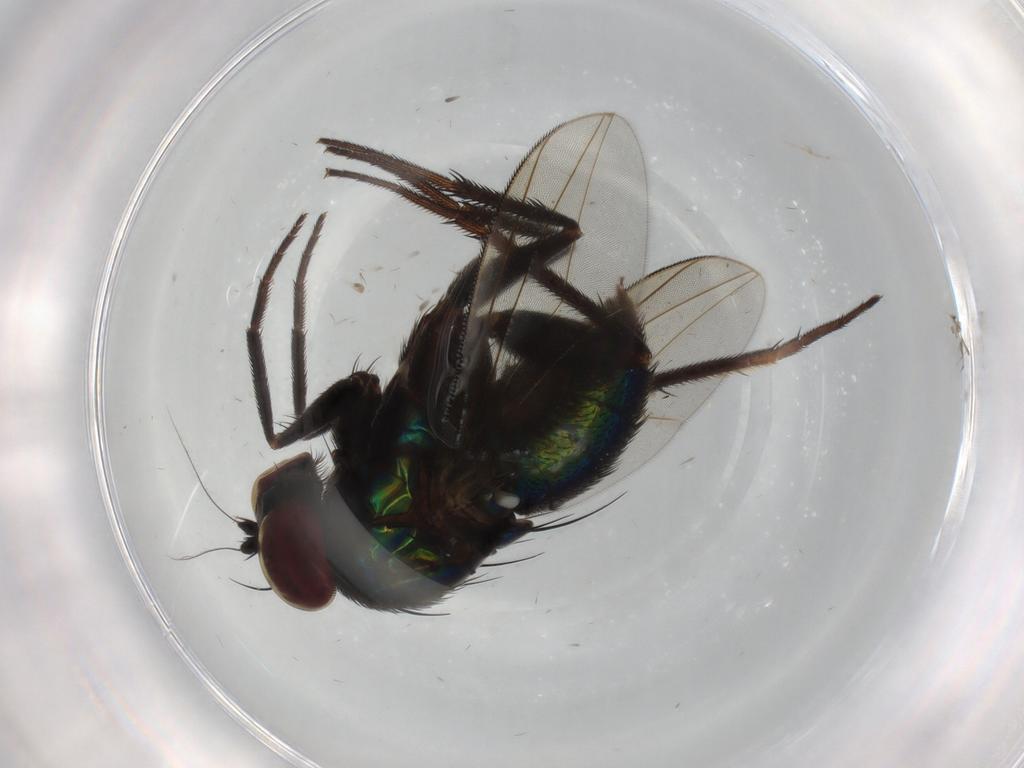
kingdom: Animalia
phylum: Arthropoda
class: Insecta
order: Diptera
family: Dolichopodidae
